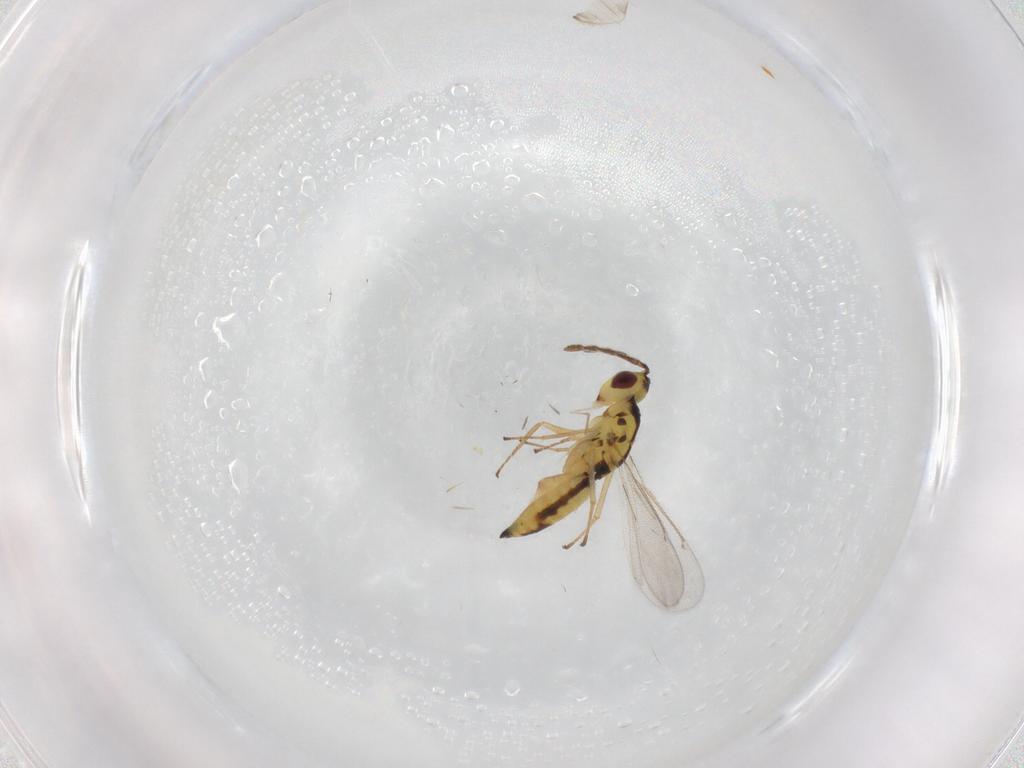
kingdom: Animalia
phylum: Arthropoda
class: Insecta
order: Hymenoptera
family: Eulophidae
